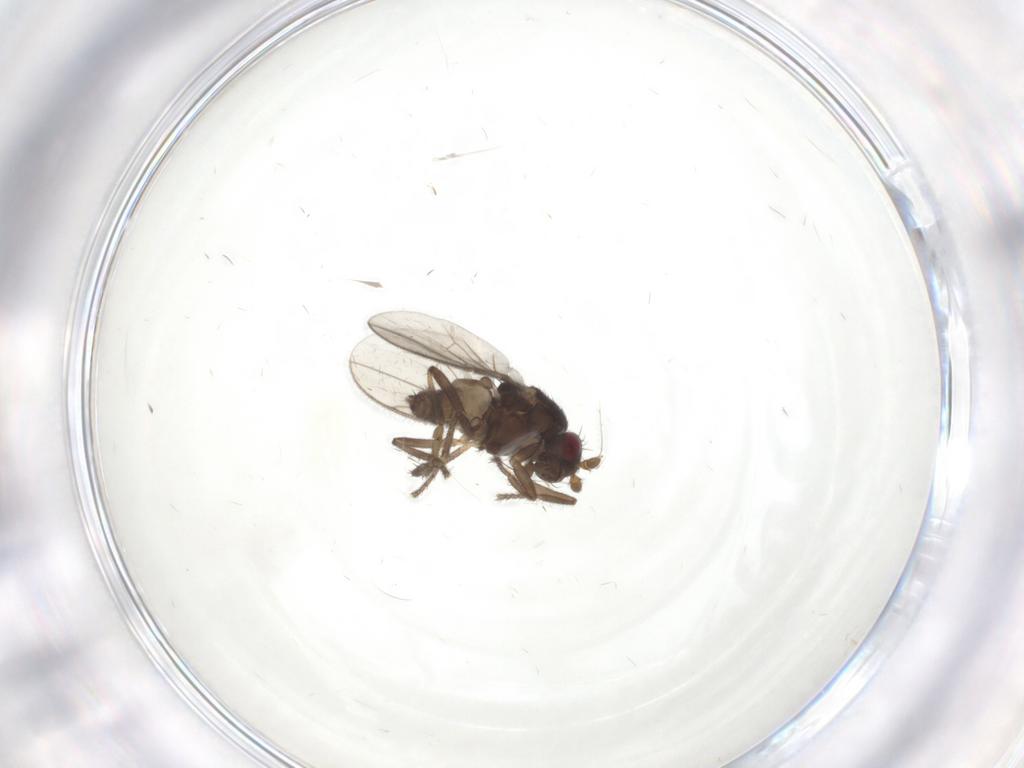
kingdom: Animalia
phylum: Arthropoda
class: Insecta
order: Diptera
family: Sphaeroceridae
